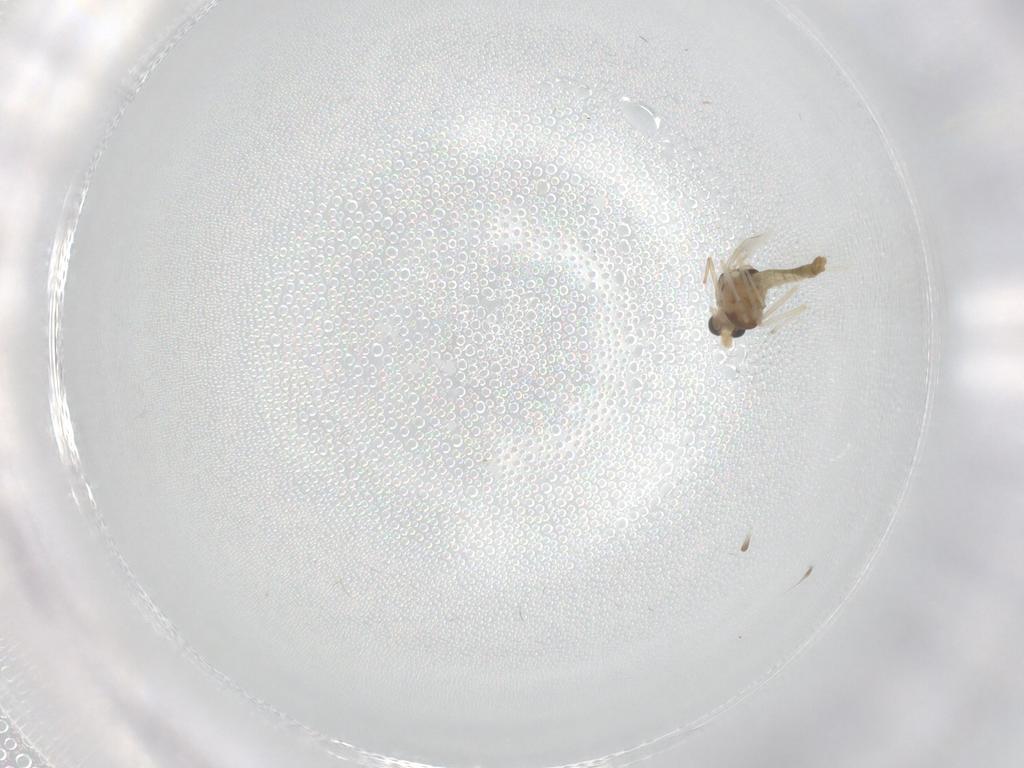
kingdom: Animalia
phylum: Arthropoda
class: Insecta
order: Diptera
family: Chironomidae
